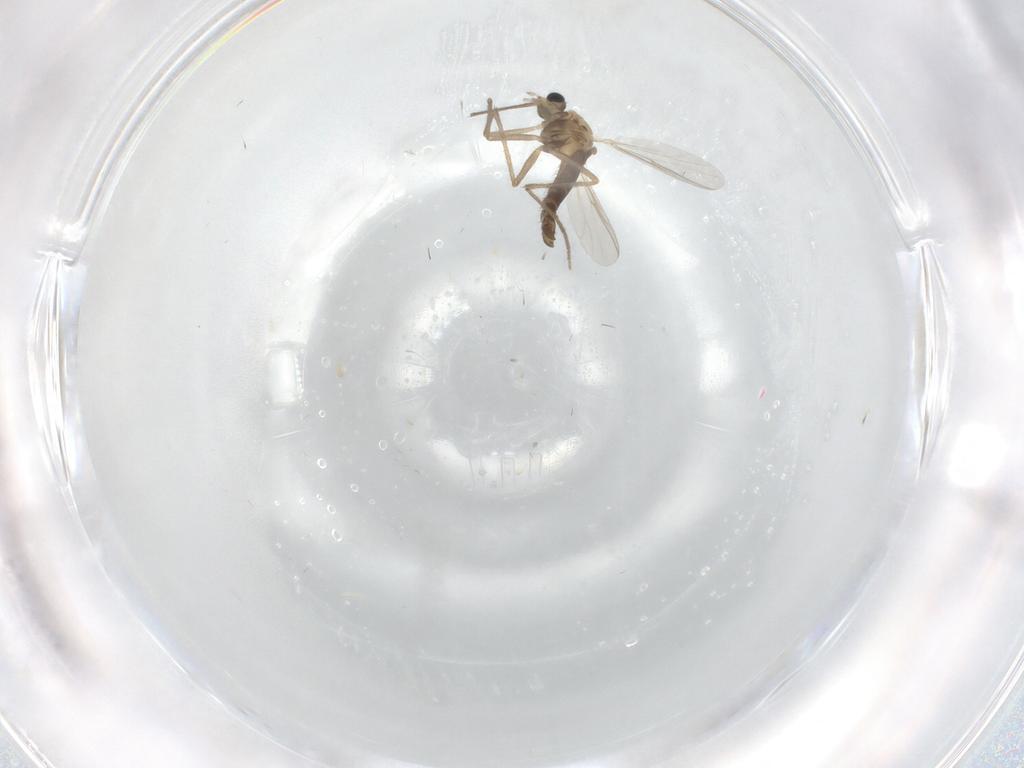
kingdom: Animalia
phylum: Arthropoda
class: Insecta
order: Diptera
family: Chironomidae
